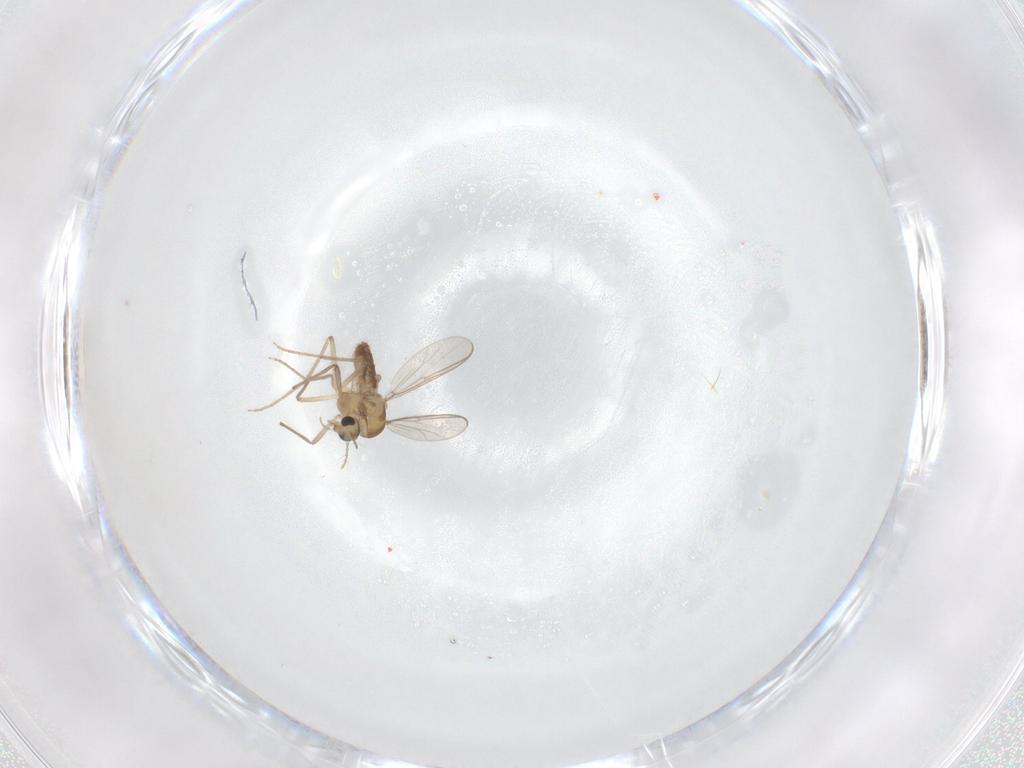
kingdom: Animalia
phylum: Arthropoda
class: Insecta
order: Diptera
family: Chironomidae
